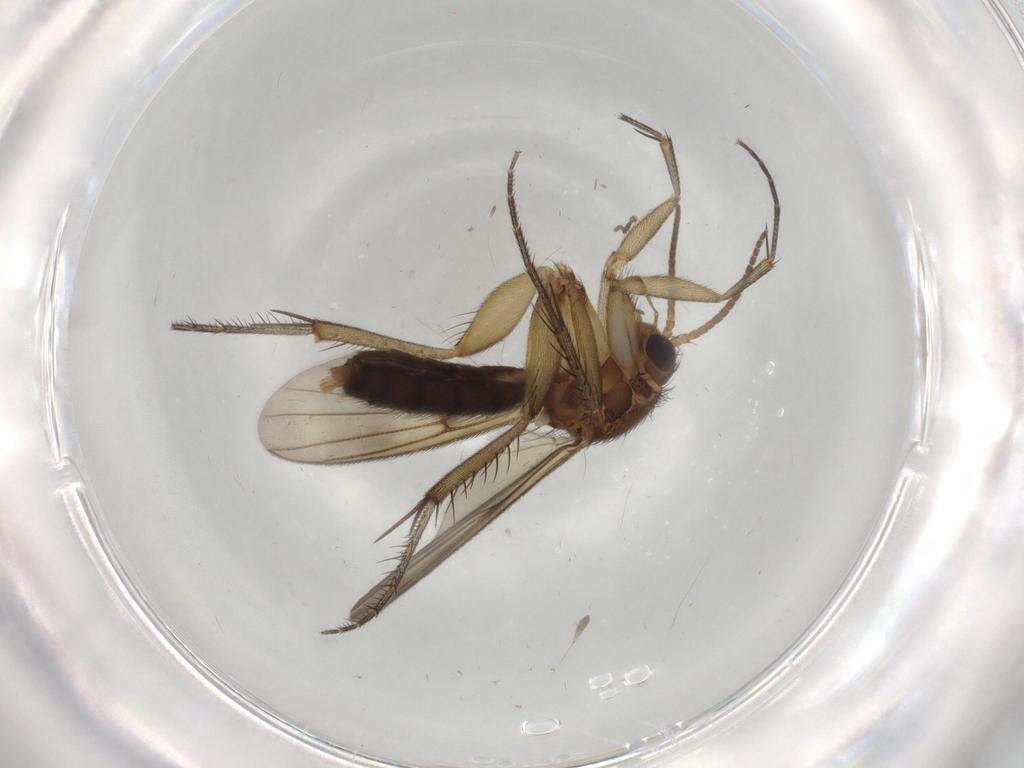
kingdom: Animalia
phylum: Arthropoda
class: Insecta
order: Diptera
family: Mycetophilidae
